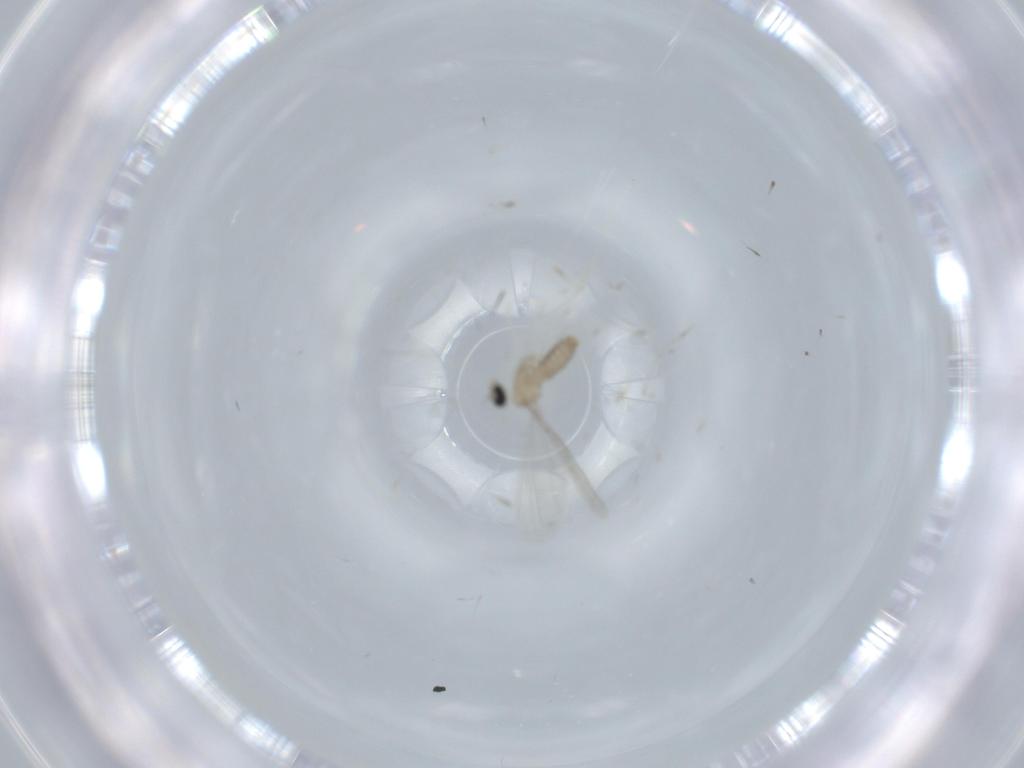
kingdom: Animalia
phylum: Arthropoda
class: Insecta
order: Diptera
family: Cecidomyiidae
